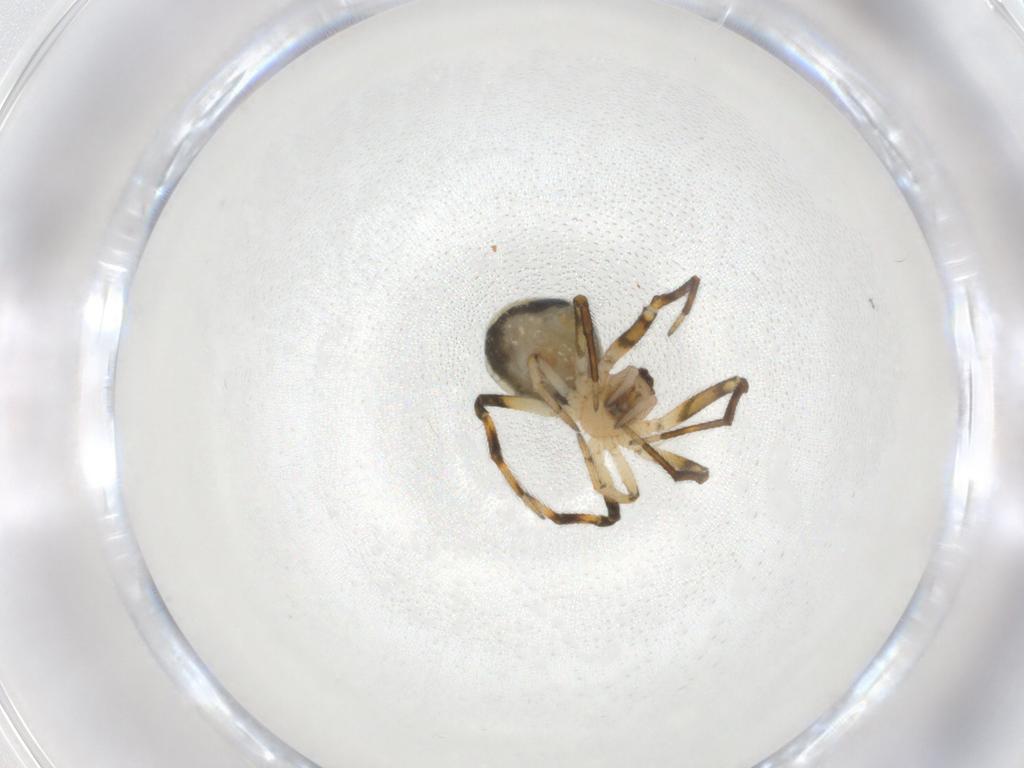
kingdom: Animalia
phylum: Arthropoda
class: Arachnida
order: Araneae
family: Theridiidae
